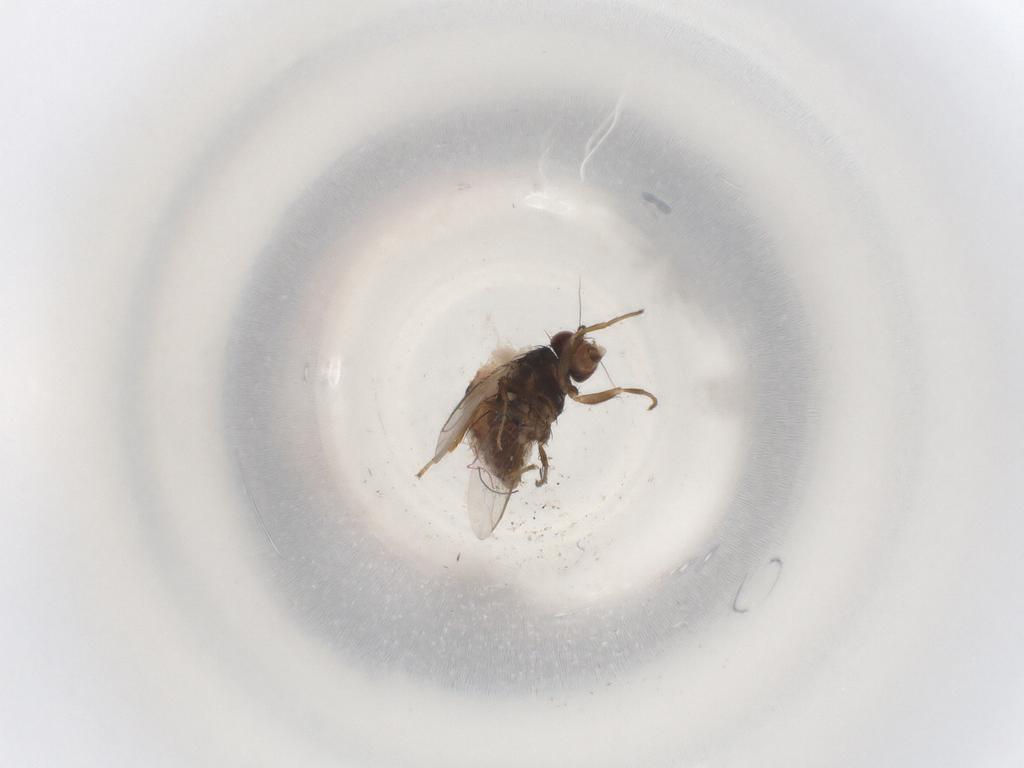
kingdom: Animalia
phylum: Arthropoda
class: Insecta
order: Diptera
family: Sphaeroceridae
